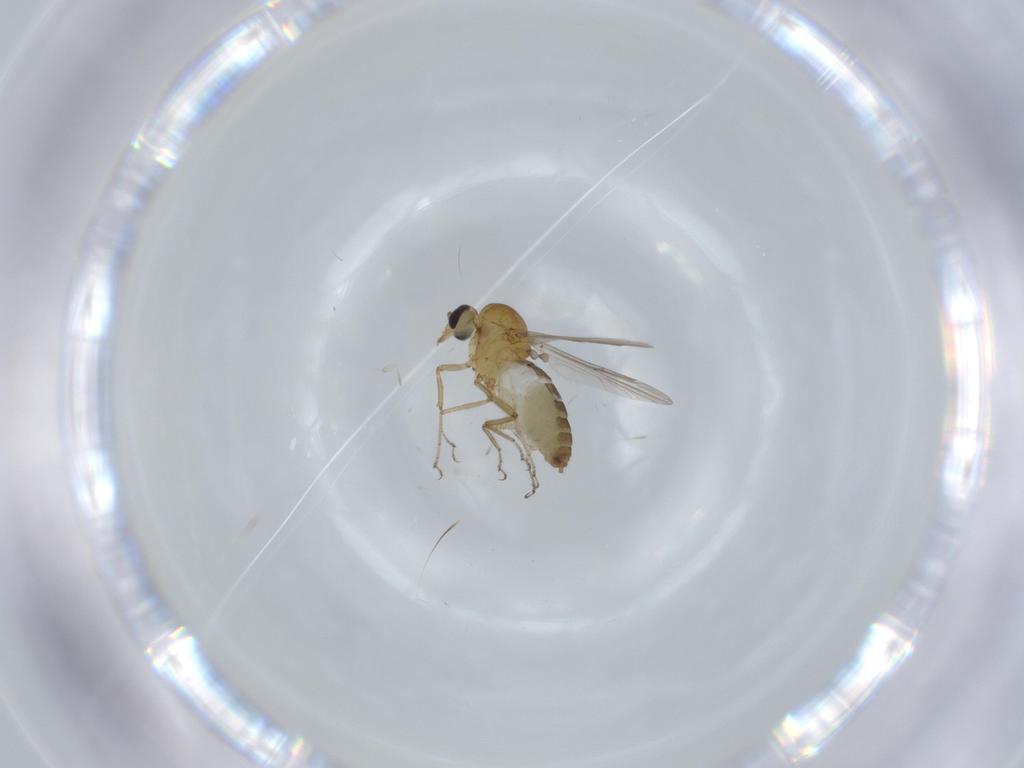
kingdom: Animalia
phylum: Arthropoda
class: Insecta
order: Diptera
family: Ceratopogonidae
